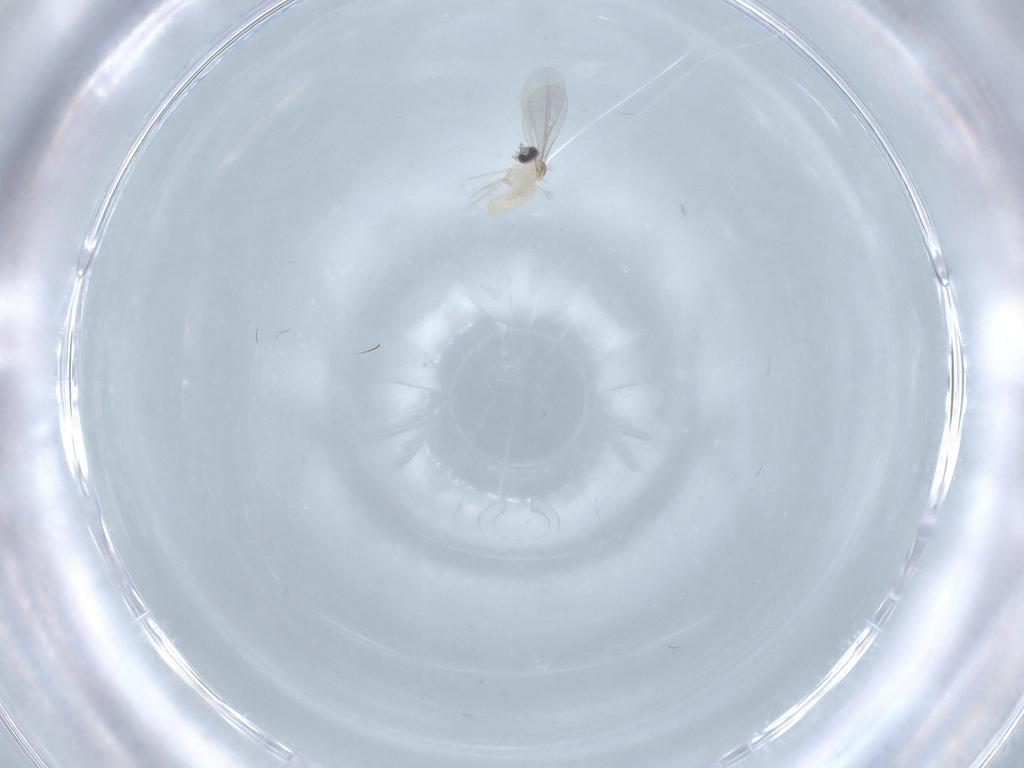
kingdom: Animalia
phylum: Arthropoda
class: Insecta
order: Diptera
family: Cecidomyiidae
